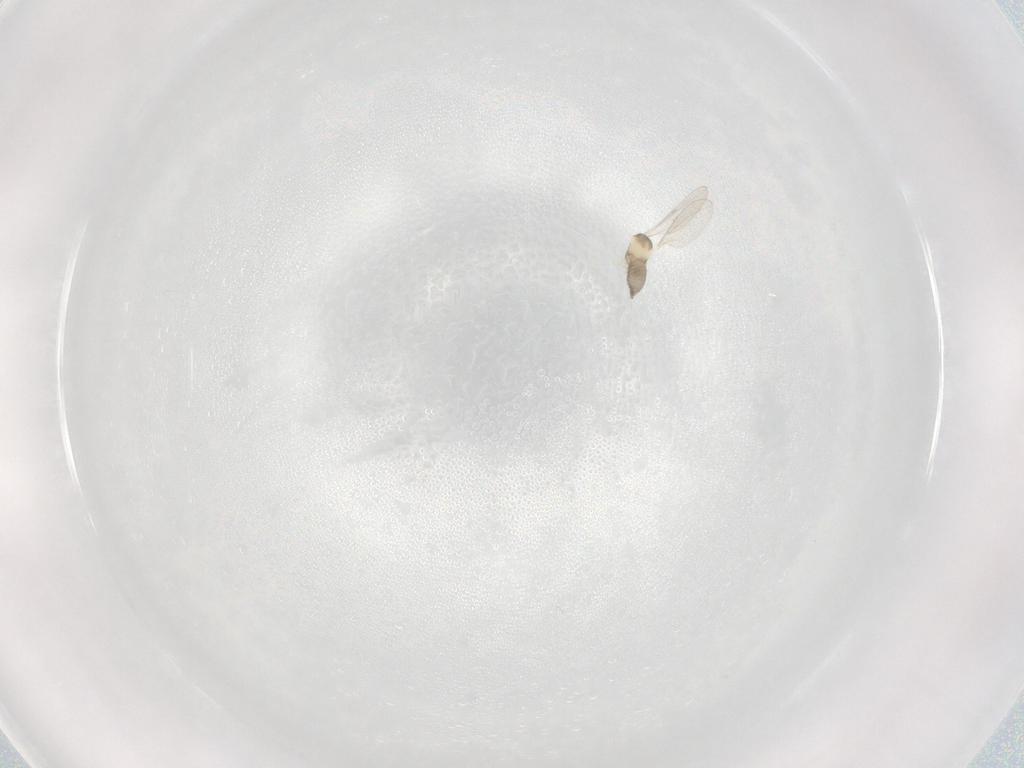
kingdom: Animalia
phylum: Arthropoda
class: Insecta
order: Diptera
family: Cecidomyiidae
